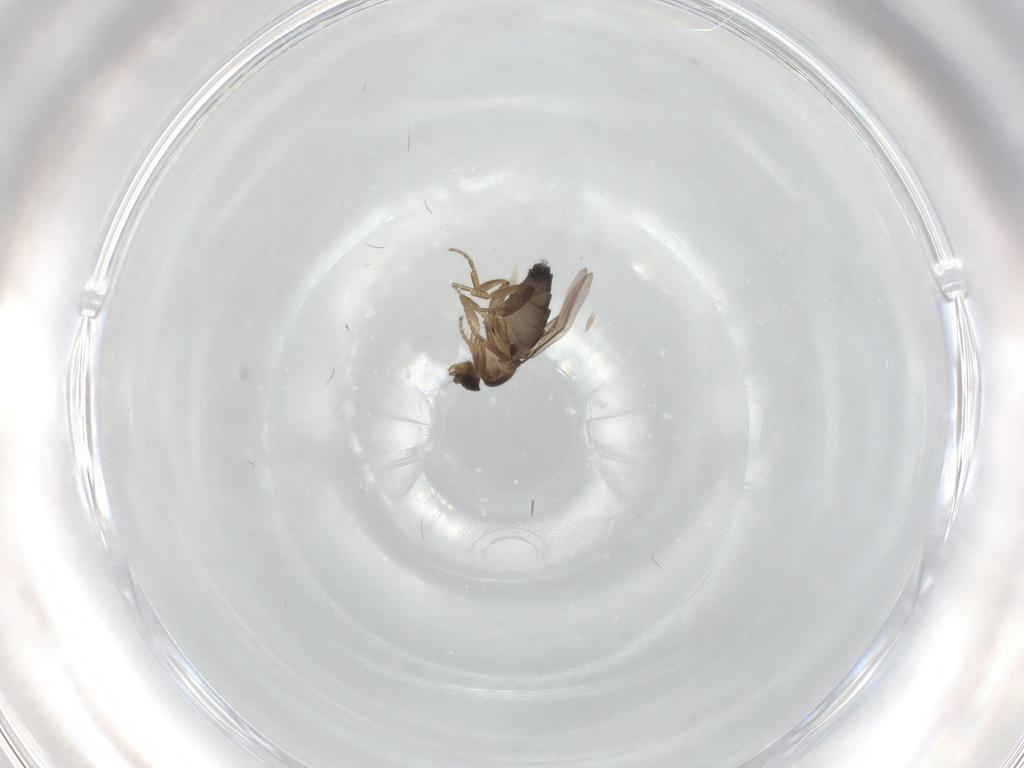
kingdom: Animalia
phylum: Arthropoda
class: Insecta
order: Diptera
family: Phoridae
